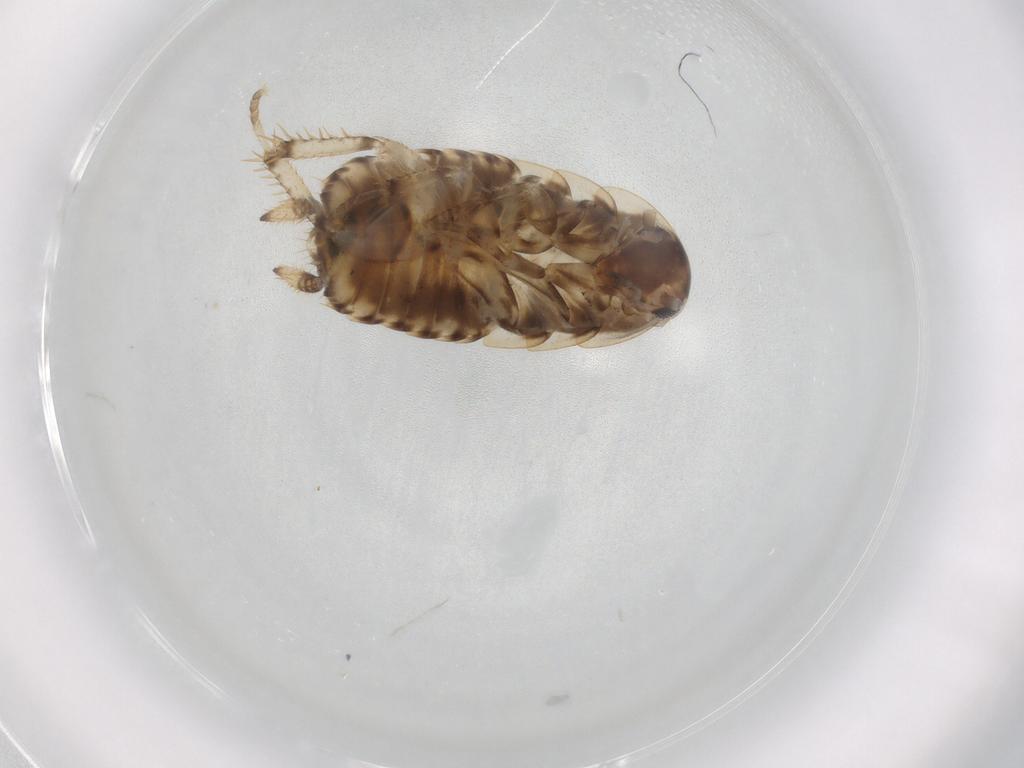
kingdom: Animalia
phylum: Arthropoda
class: Insecta
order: Blattodea
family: Ectobiidae
